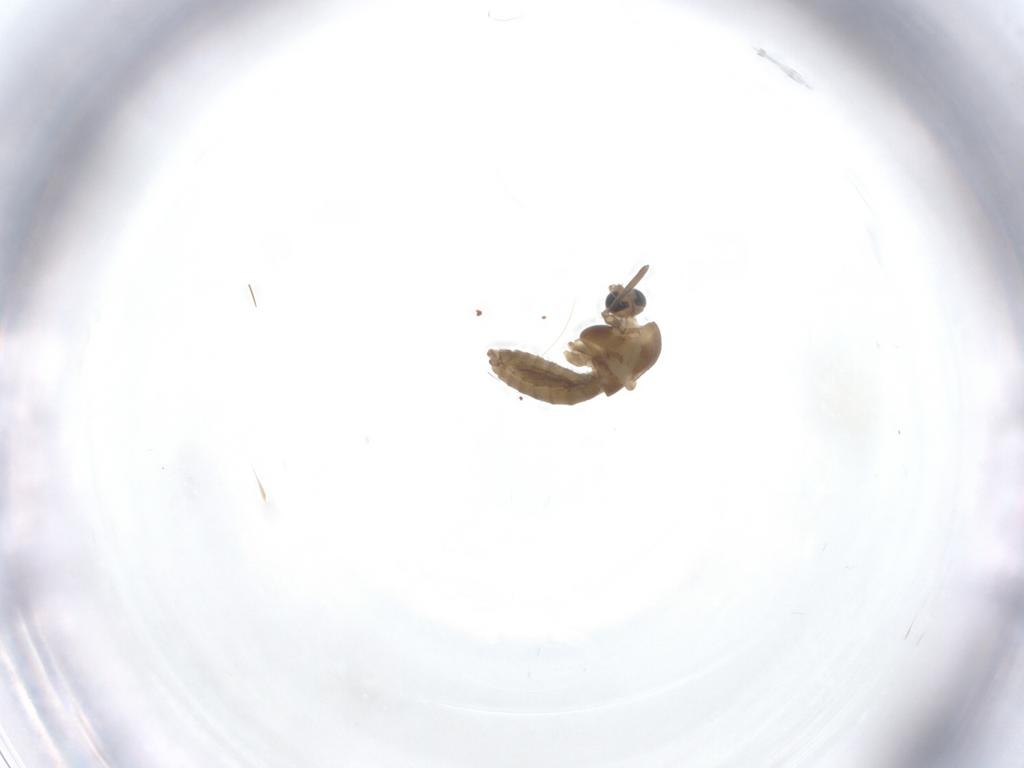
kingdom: Animalia
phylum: Arthropoda
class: Insecta
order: Diptera
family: Chironomidae
